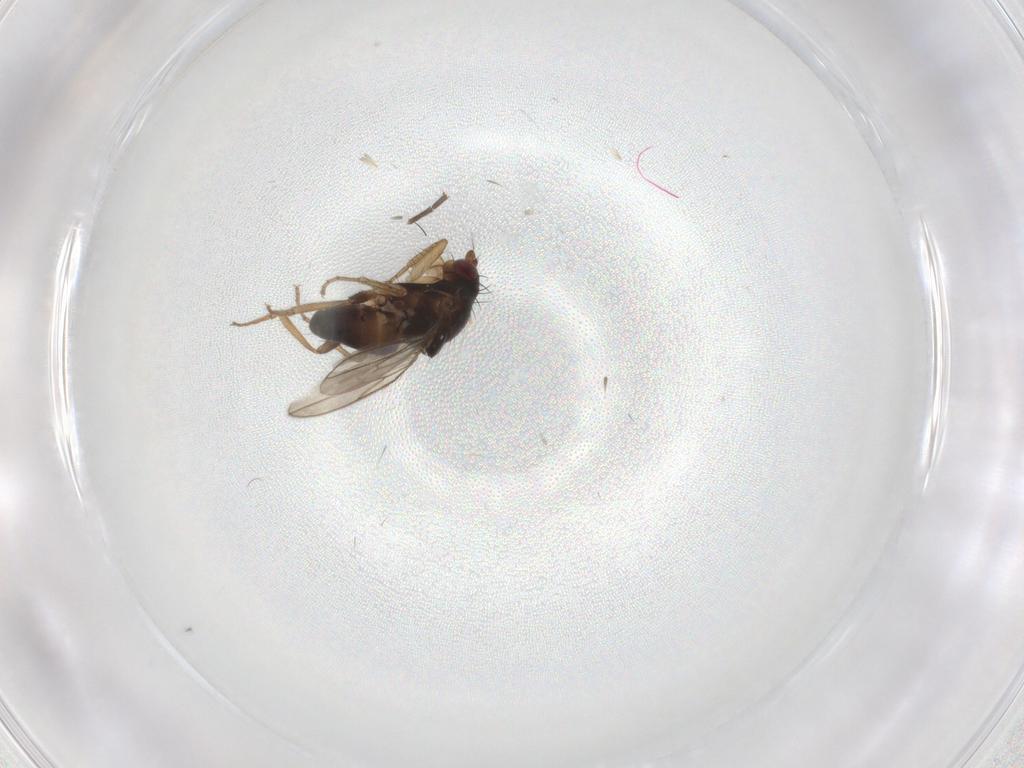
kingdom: Animalia
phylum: Arthropoda
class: Insecta
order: Diptera
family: Sphaeroceridae
